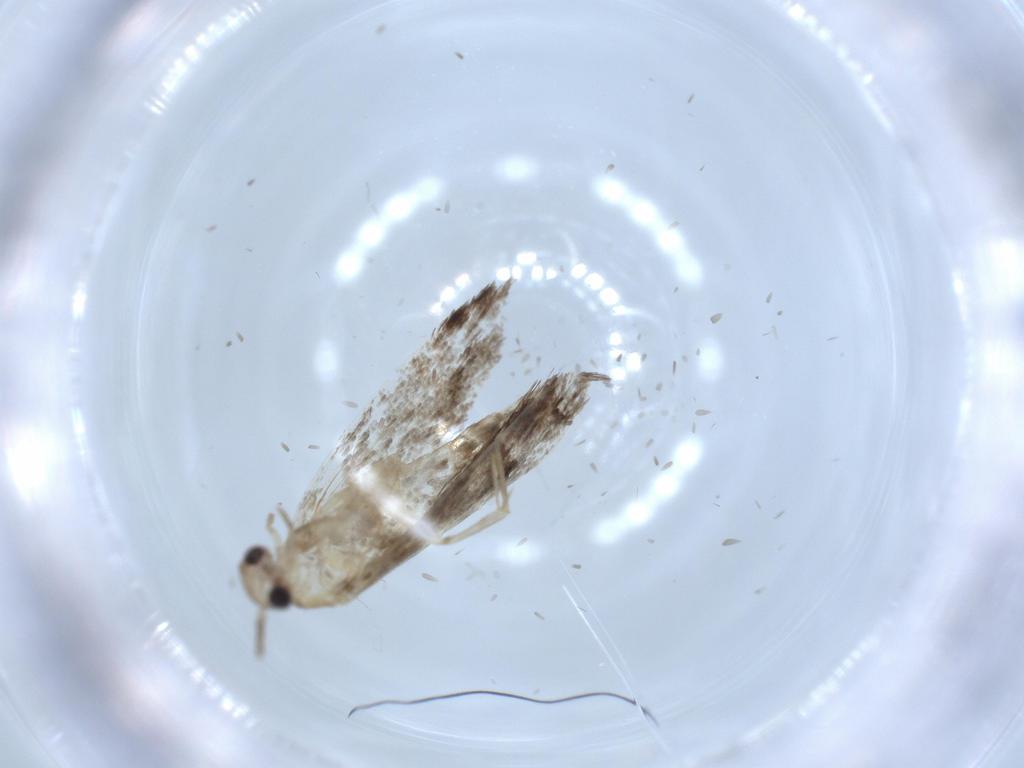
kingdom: Animalia
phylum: Arthropoda
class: Insecta
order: Lepidoptera
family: Tineidae
